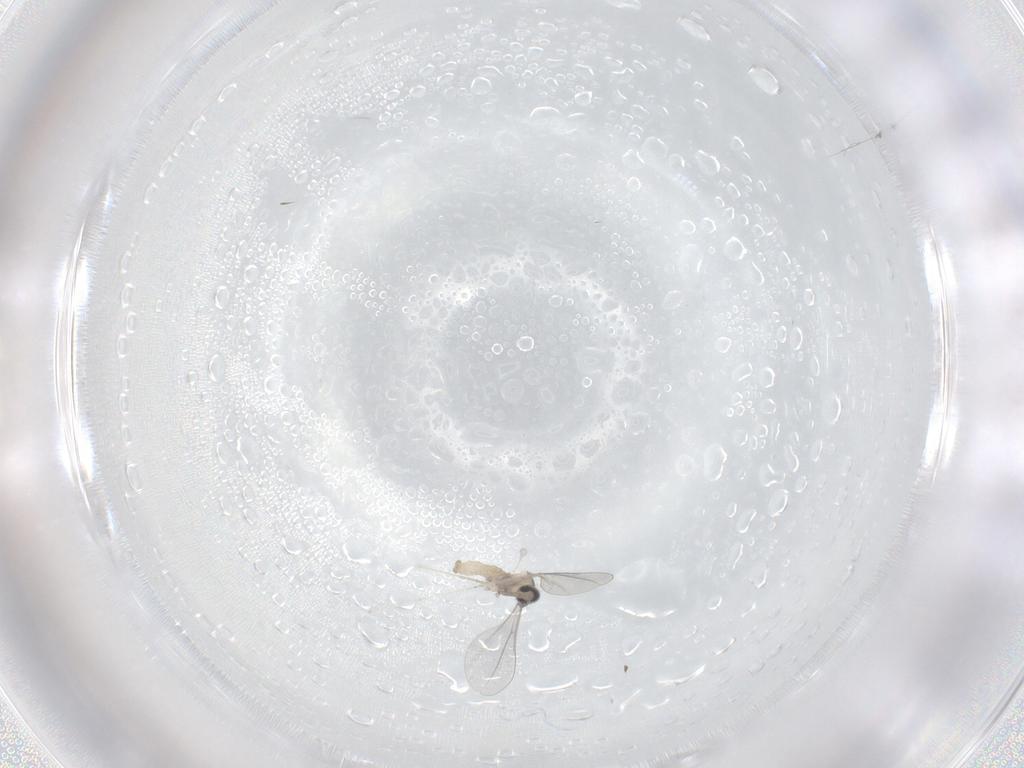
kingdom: Animalia
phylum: Arthropoda
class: Insecta
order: Diptera
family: Cecidomyiidae
